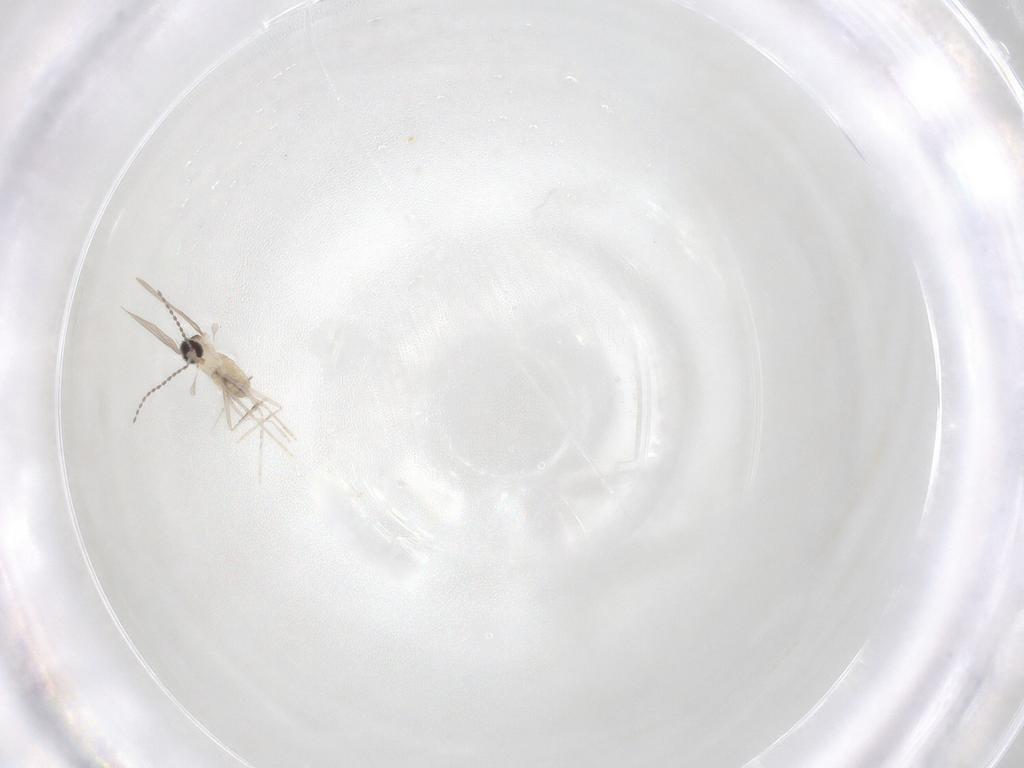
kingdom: Animalia
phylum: Arthropoda
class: Insecta
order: Diptera
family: Cecidomyiidae
